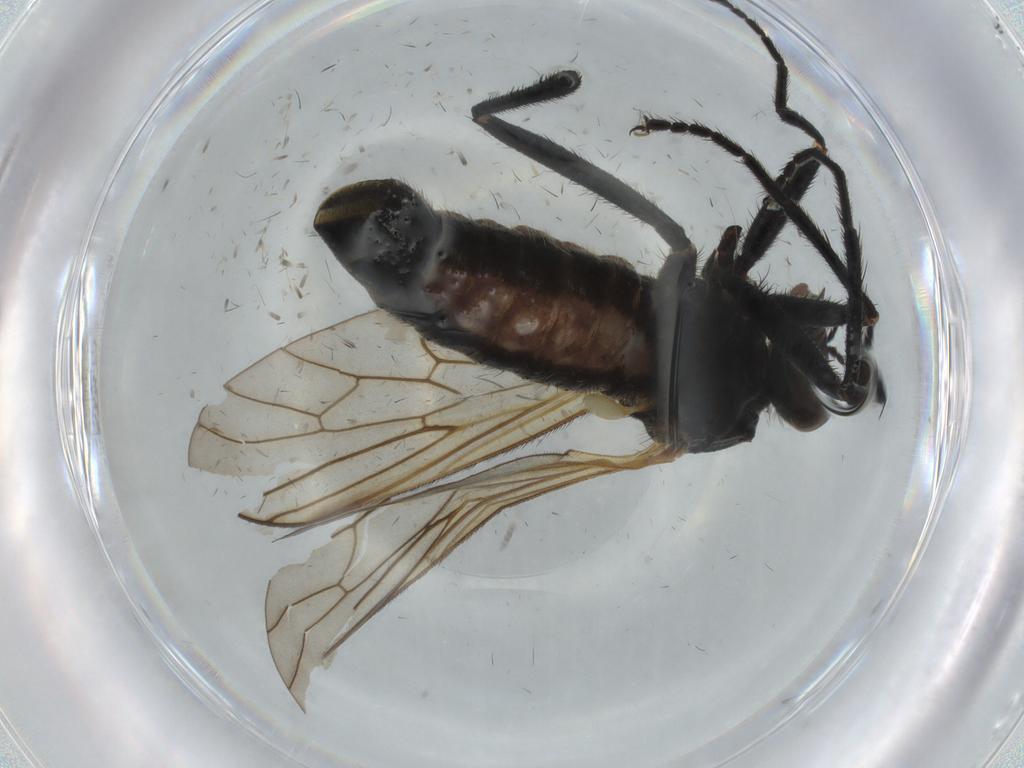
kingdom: Animalia
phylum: Arthropoda
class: Insecta
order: Diptera
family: Brachystomatidae
